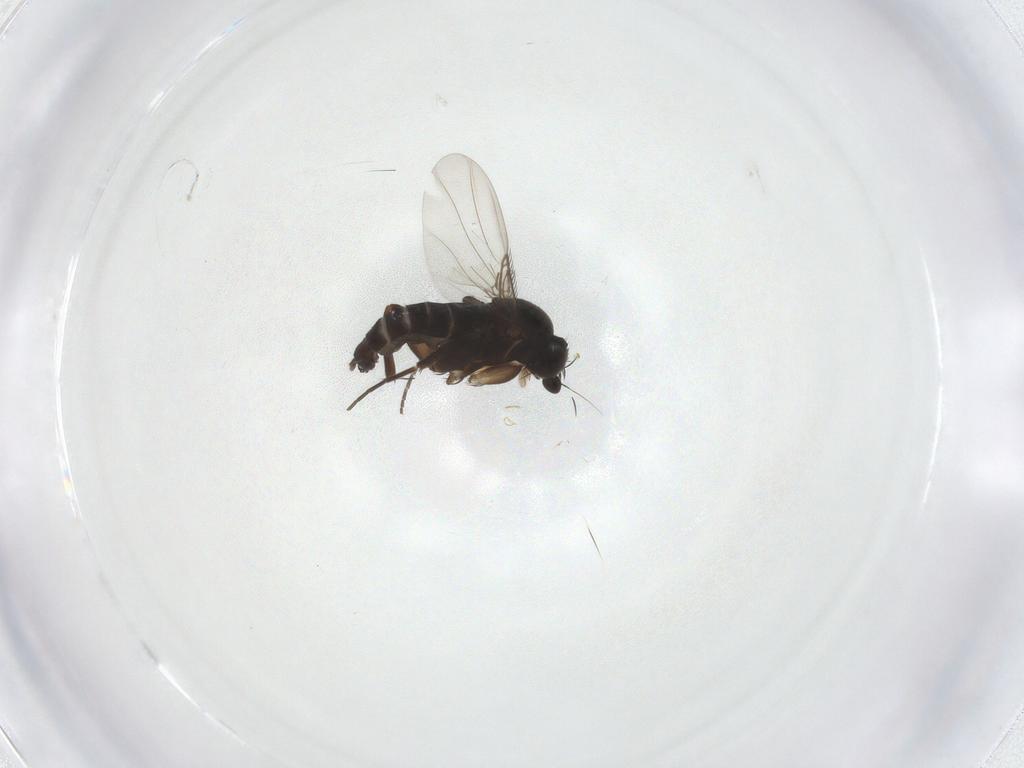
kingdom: Animalia
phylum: Arthropoda
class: Insecta
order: Diptera
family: Phoridae
